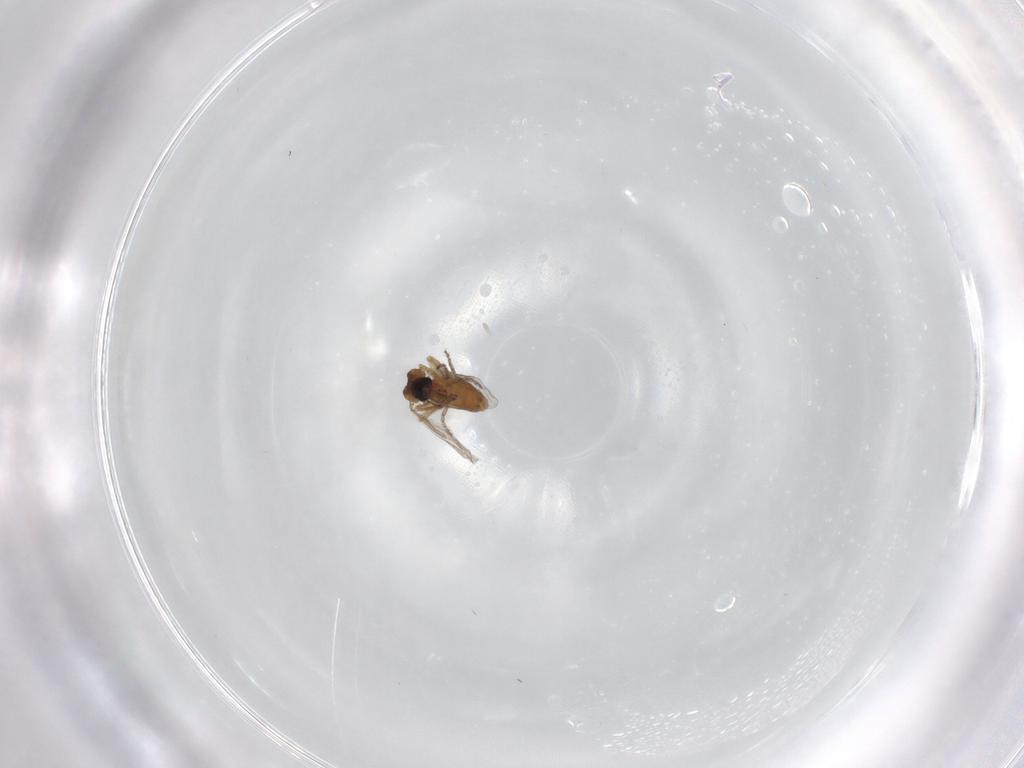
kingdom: Animalia
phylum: Arthropoda
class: Insecta
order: Diptera
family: Ceratopogonidae
